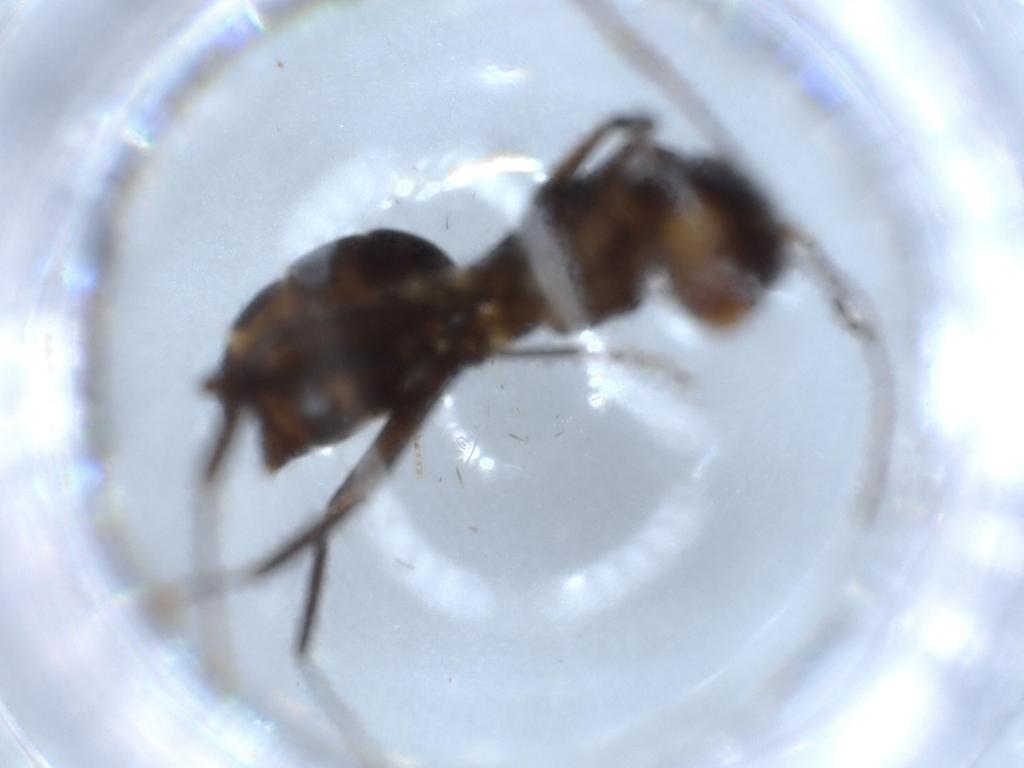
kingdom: Animalia
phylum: Arthropoda
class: Insecta
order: Hymenoptera
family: Formicidae
